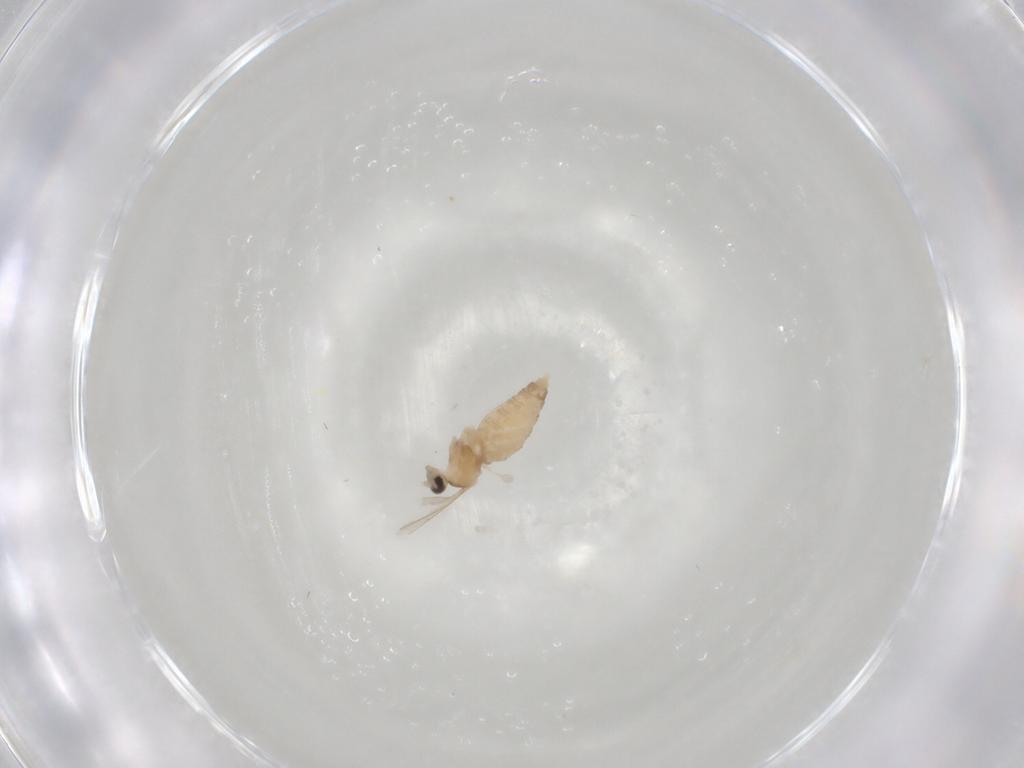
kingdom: Animalia
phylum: Arthropoda
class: Insecta
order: Diptera
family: Cecidomyiidae
